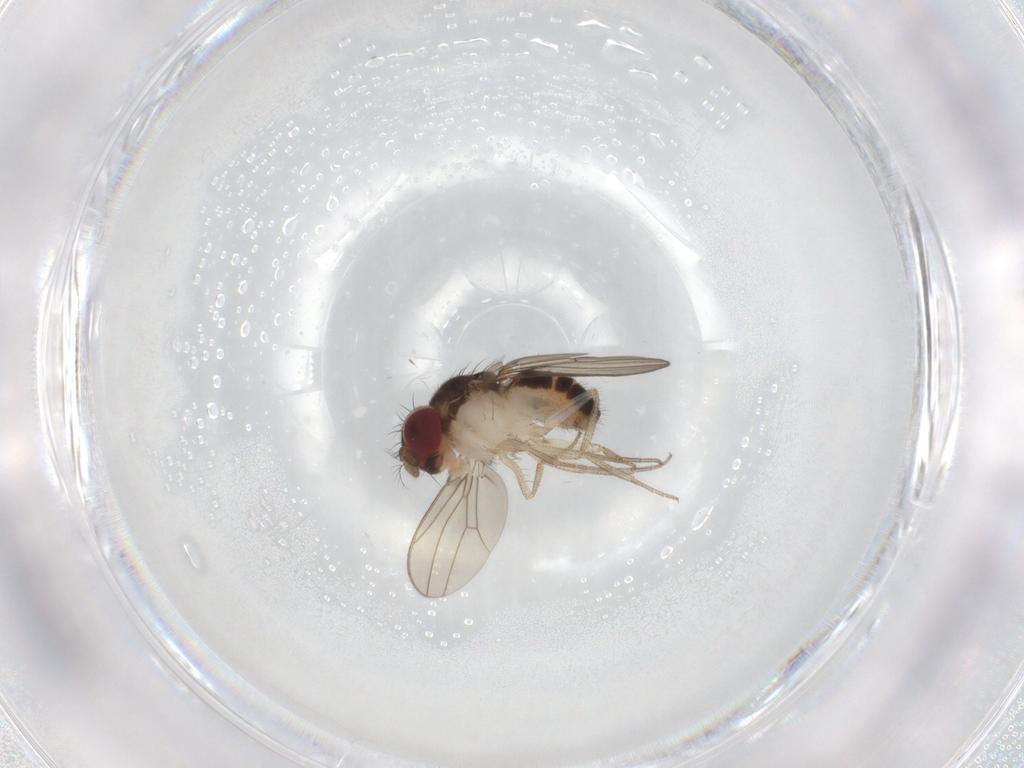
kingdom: Animalia
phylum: Arthropoda
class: Insecta
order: Diptera
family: Drosophilidae
